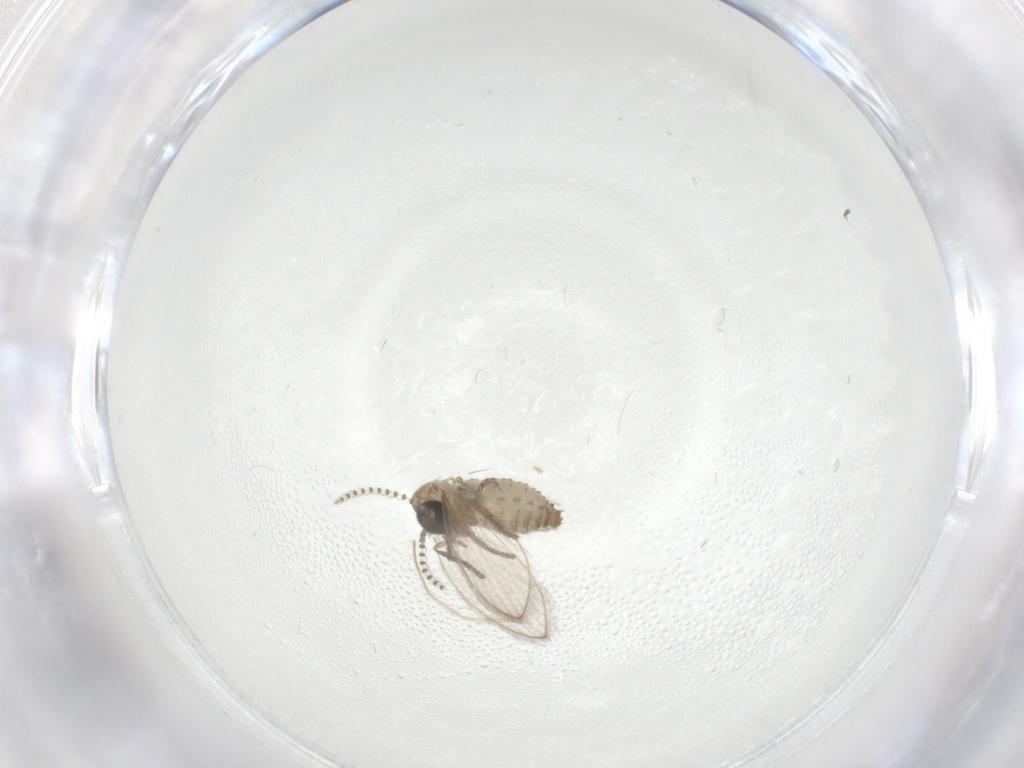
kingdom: Animalia
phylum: Arthropoda
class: Insecta
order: Diptera
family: Psychodidae
